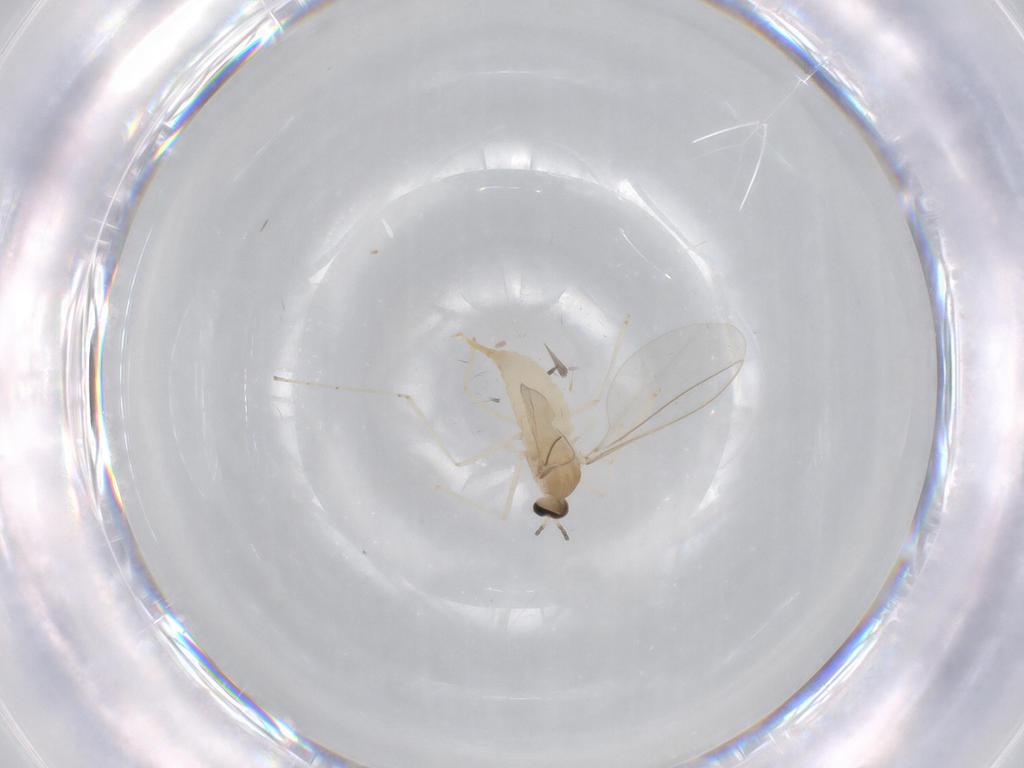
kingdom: Animalia
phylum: Arthropoda
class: Insecta
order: Diptera
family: Cecidomyiidae
